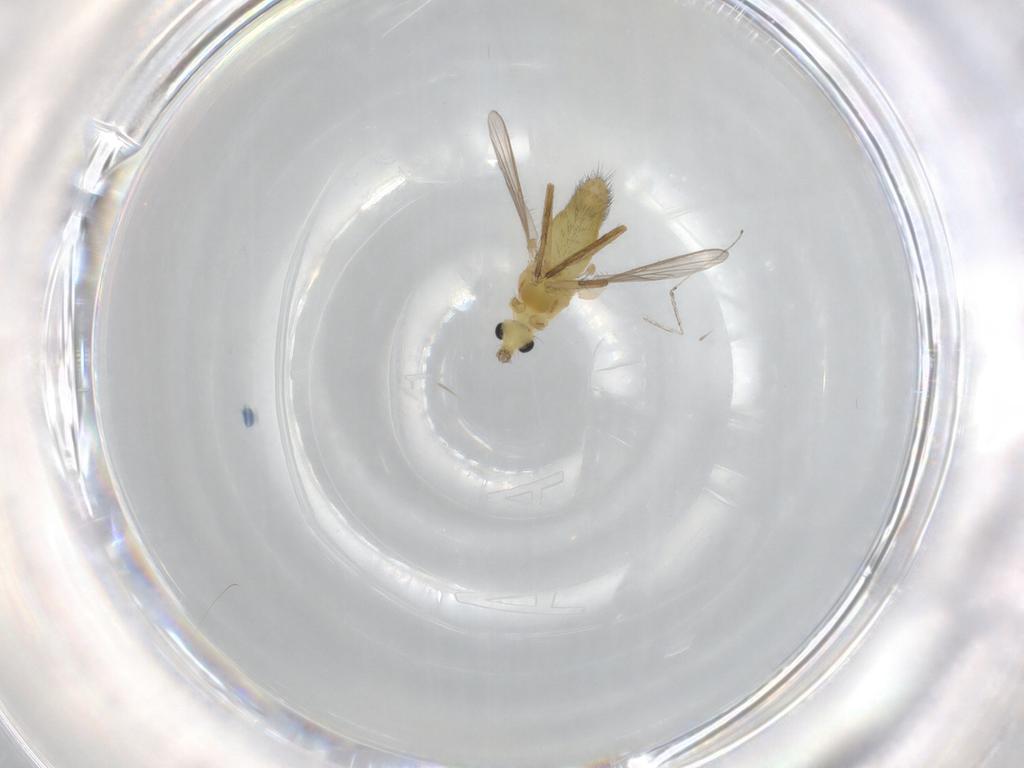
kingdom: Animalia
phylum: Arthropoda
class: Insecta
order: Diptera
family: Chironomidae
